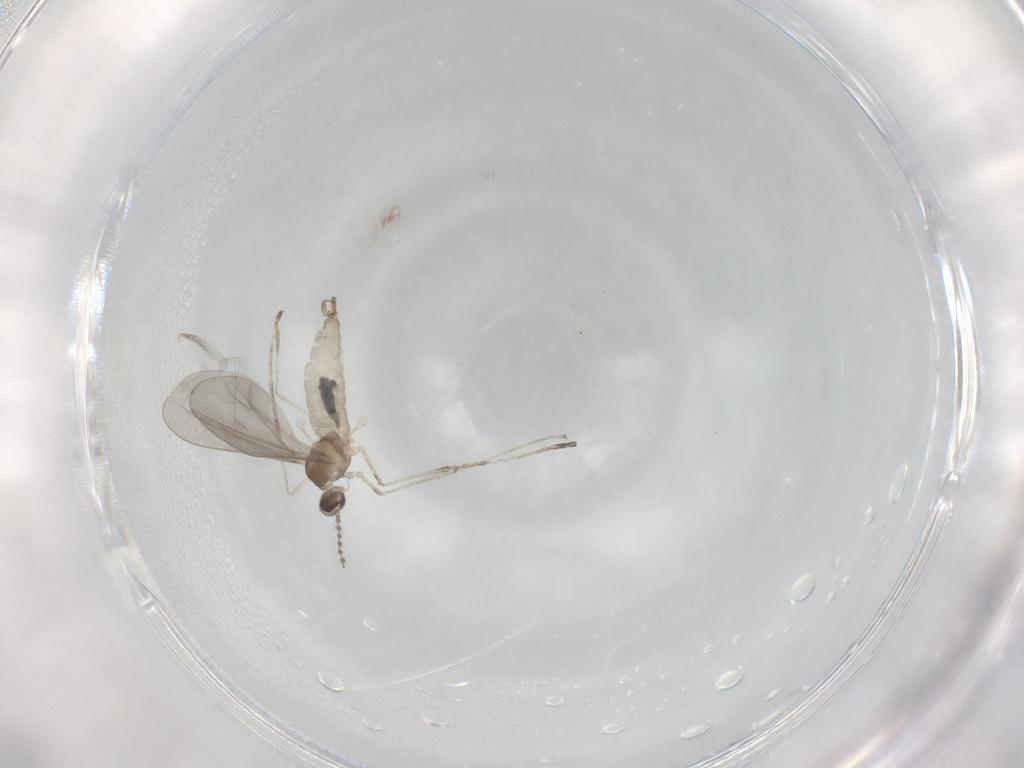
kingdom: Animalia
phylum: Arthropoda
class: Insecta
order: Diptera
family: Cecidomyiidae
